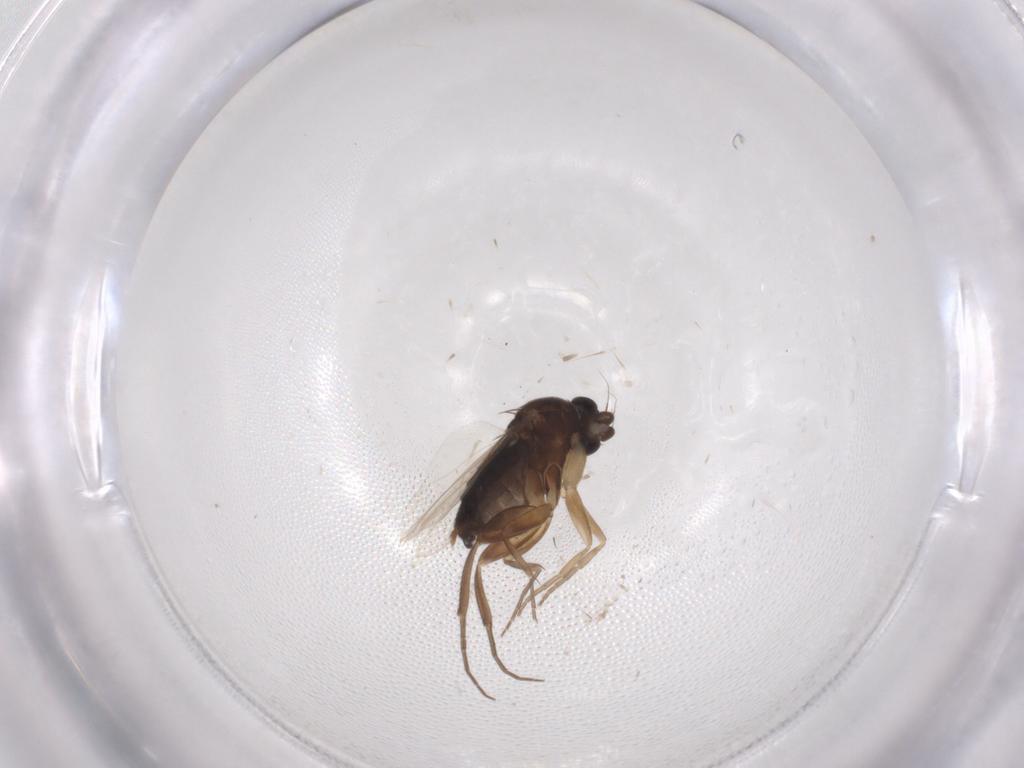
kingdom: Animalia
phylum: Arthropoda
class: Insecta
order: Diptera
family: Phoridae
